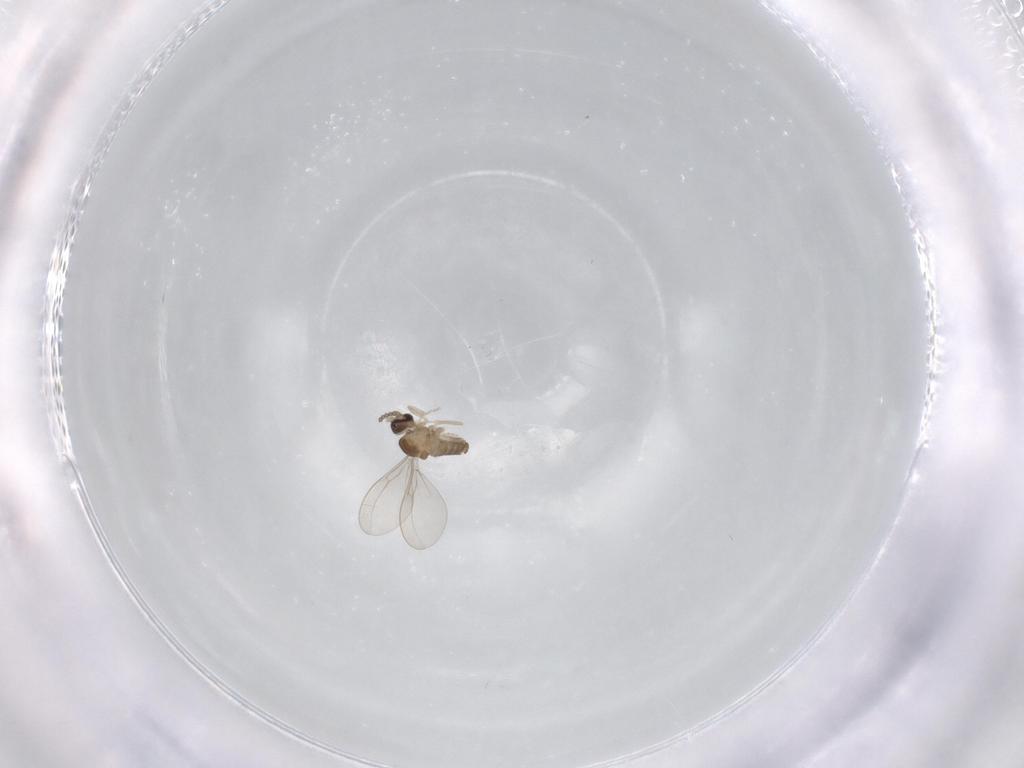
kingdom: Animalia
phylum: Arthropoda
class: Insecta
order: Diptera
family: Cecidomyiidae
